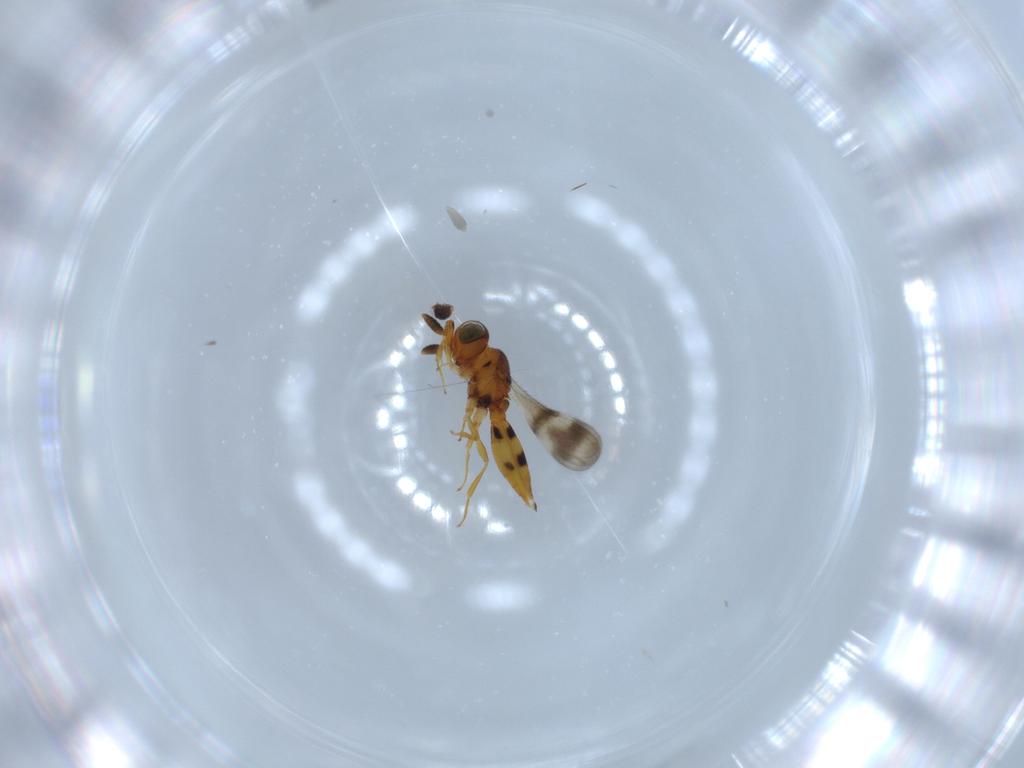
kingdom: Animalia
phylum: Arthropoda
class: Insecta
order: Hymenoptera
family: Scelionidae
